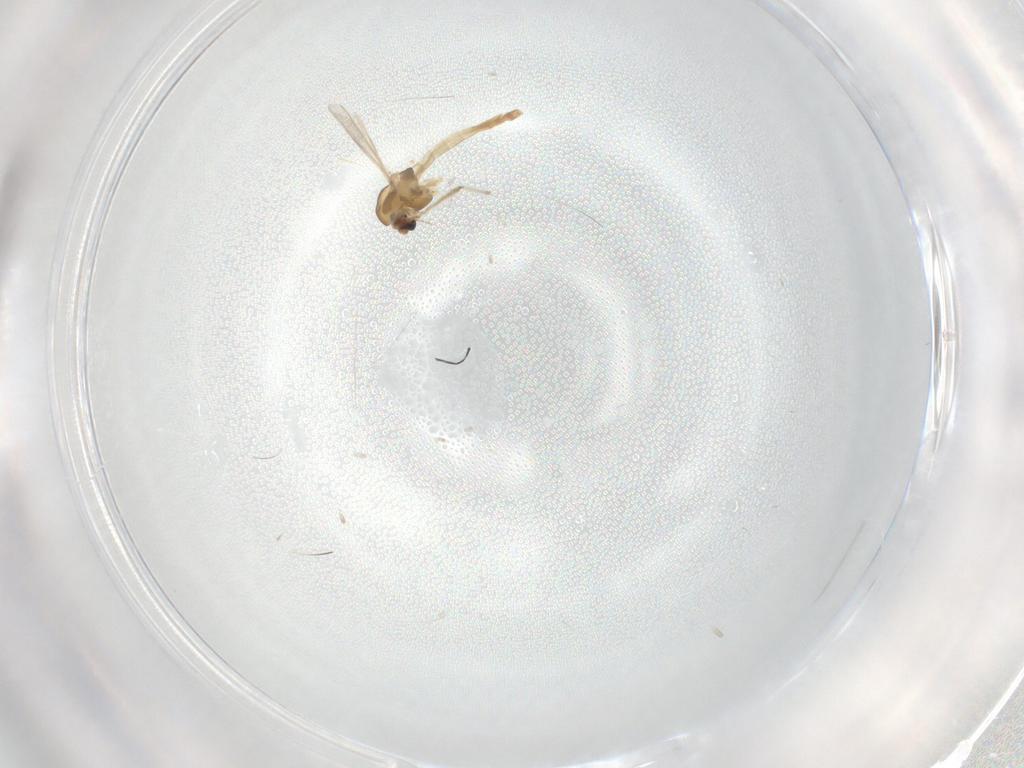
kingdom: Animalia
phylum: Arthropoda
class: Insecta
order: Diptera
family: Chironomidae
